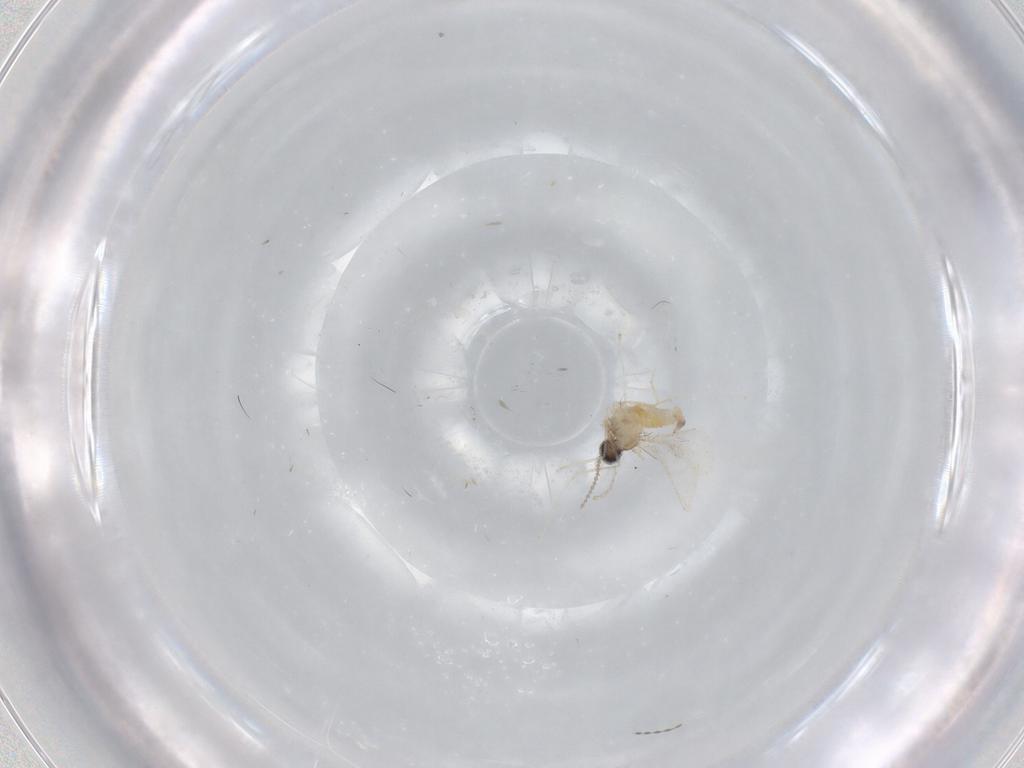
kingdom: Animalia
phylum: Arthropoda
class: Insecta
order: Diptera
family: Cecidomyiidae
